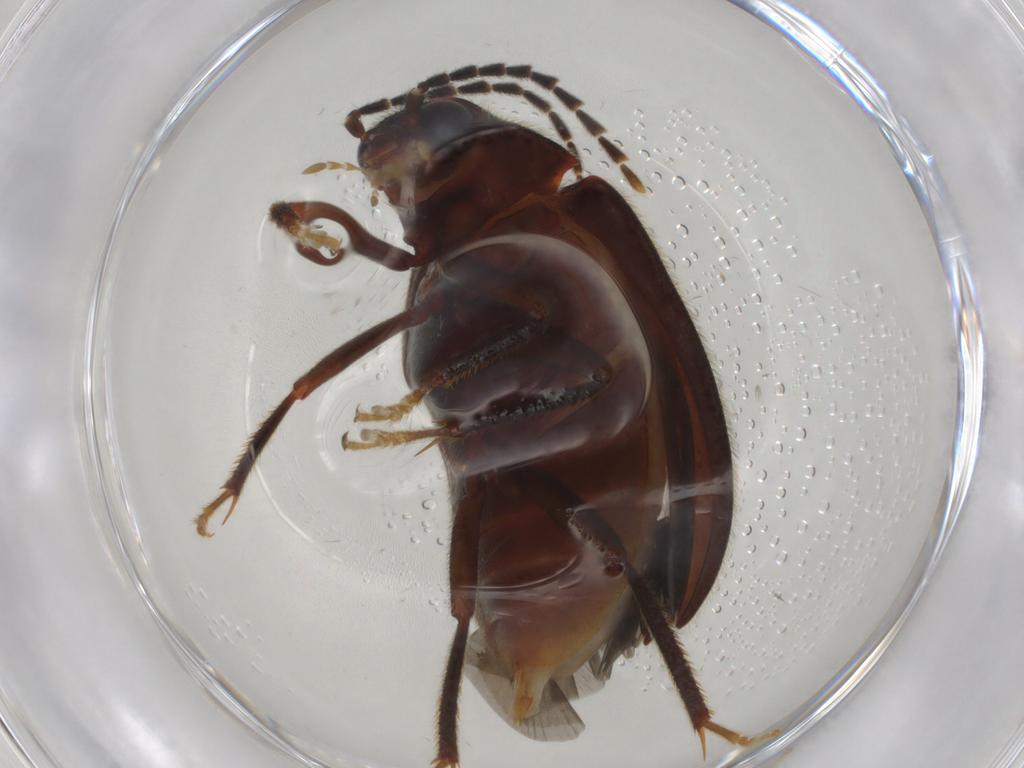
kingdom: Animalia
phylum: Arthropoda
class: Insecta
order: Coleoptera
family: Ptilodactylidae
